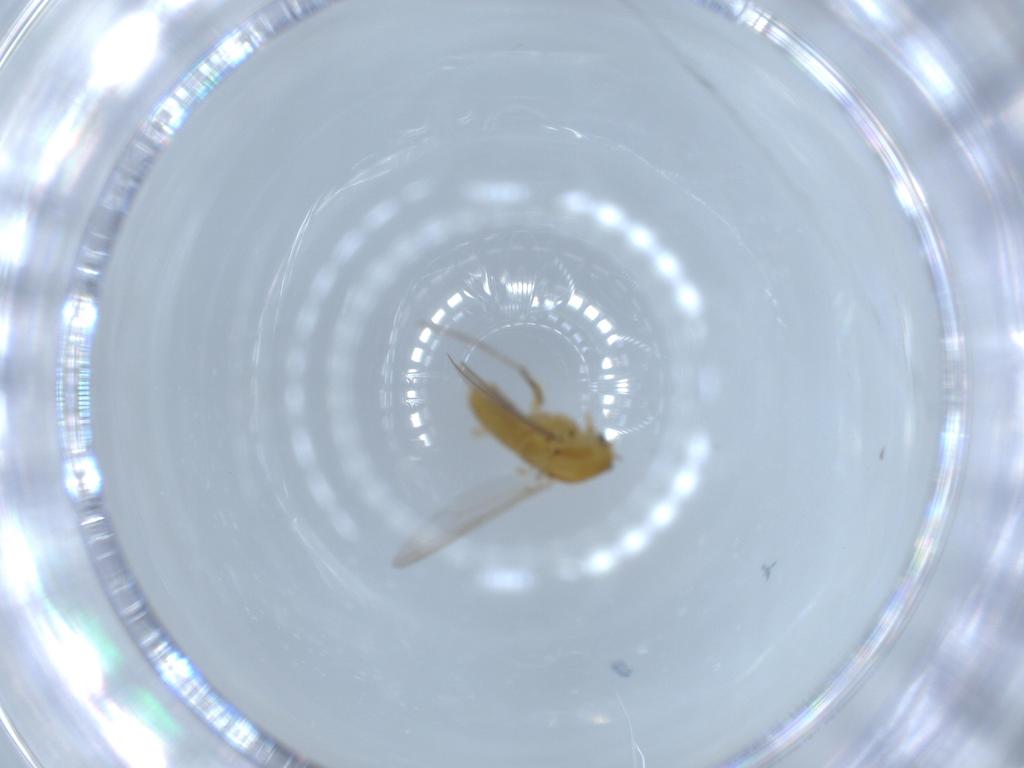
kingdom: Animalia
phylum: Arthropoda
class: Insecta
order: Diptera
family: Chironomidae
